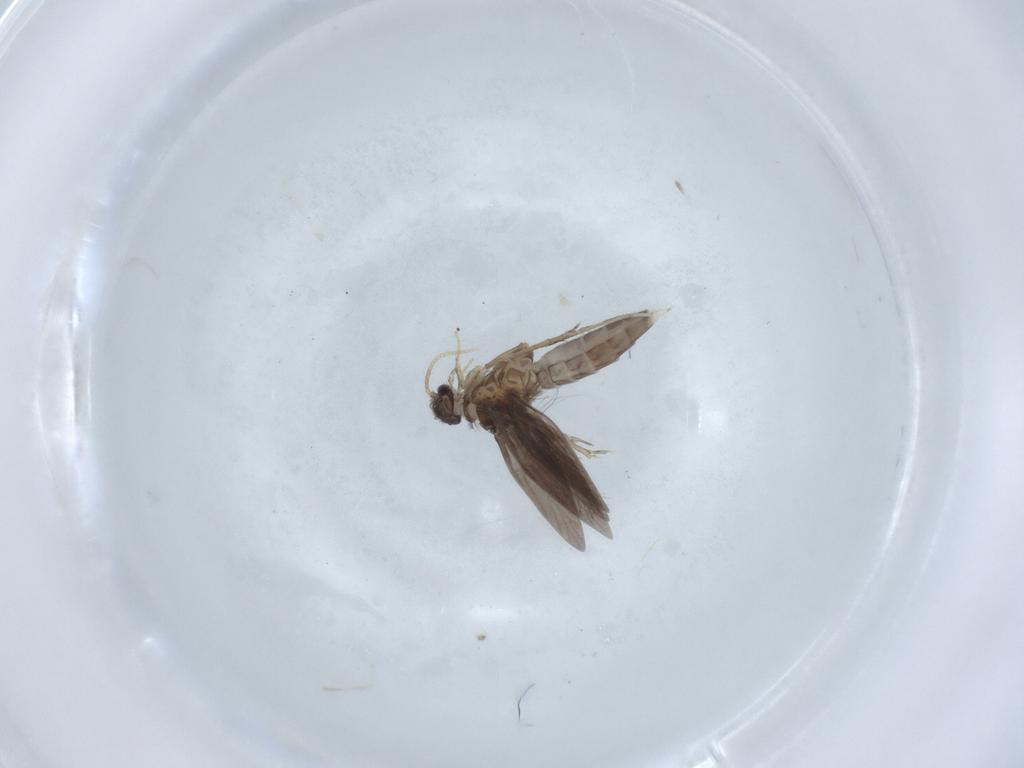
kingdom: Animalia
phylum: Arthropoda
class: Insecta
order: Trichoptera
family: Hydroptilidae
